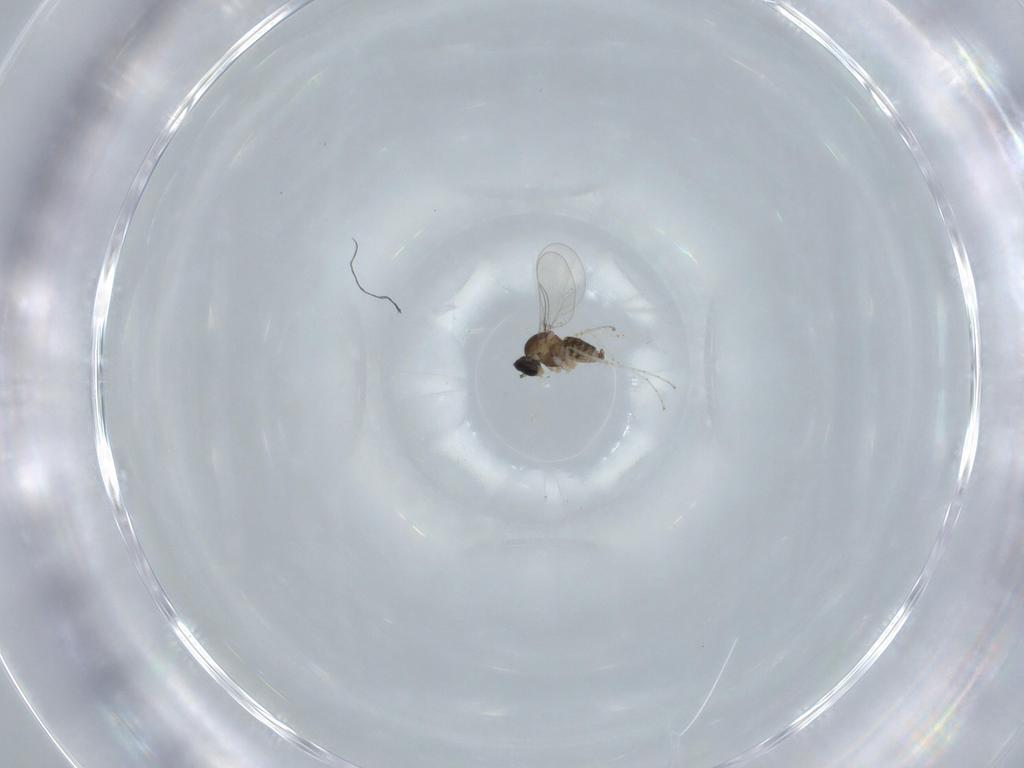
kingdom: Animalia
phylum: Arthropoda
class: Insecta
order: Diptera
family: Cecidomyiidae
